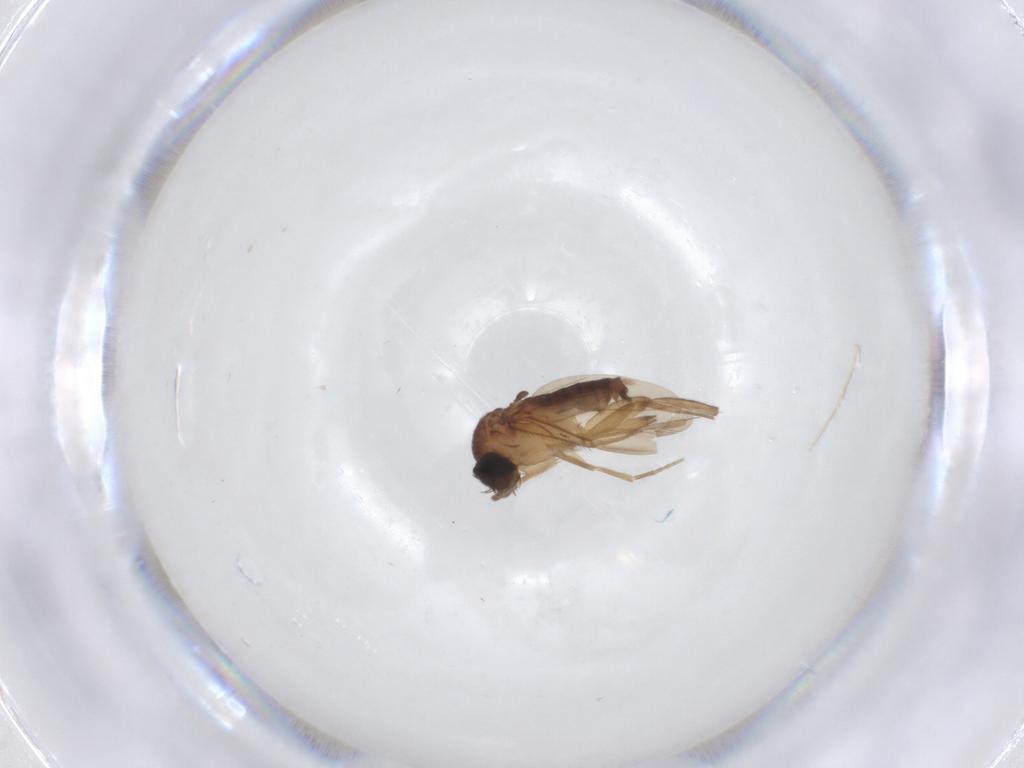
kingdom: Animalia
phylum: Arthropoda
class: Insecta
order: Diptera
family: Phoridae
